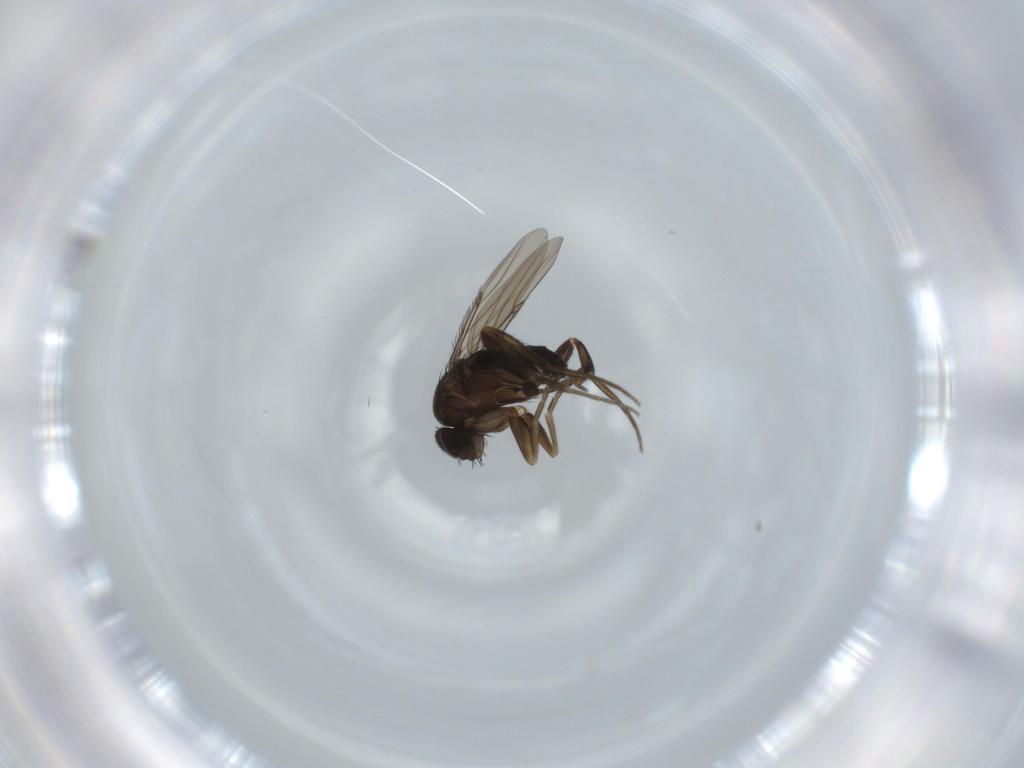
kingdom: Animalia
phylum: Arthropoda
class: Insecta
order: Diptera
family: Phoridae
